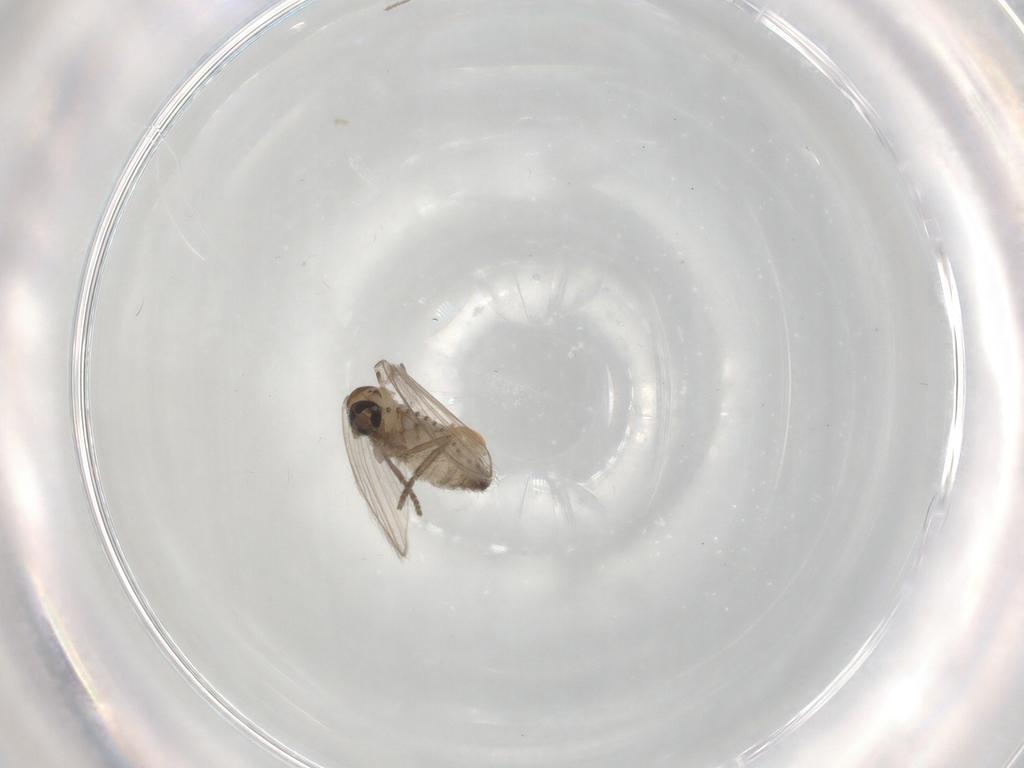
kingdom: Animalia
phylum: Arthropoda
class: Insecta
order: Diptera
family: Psychodidae
